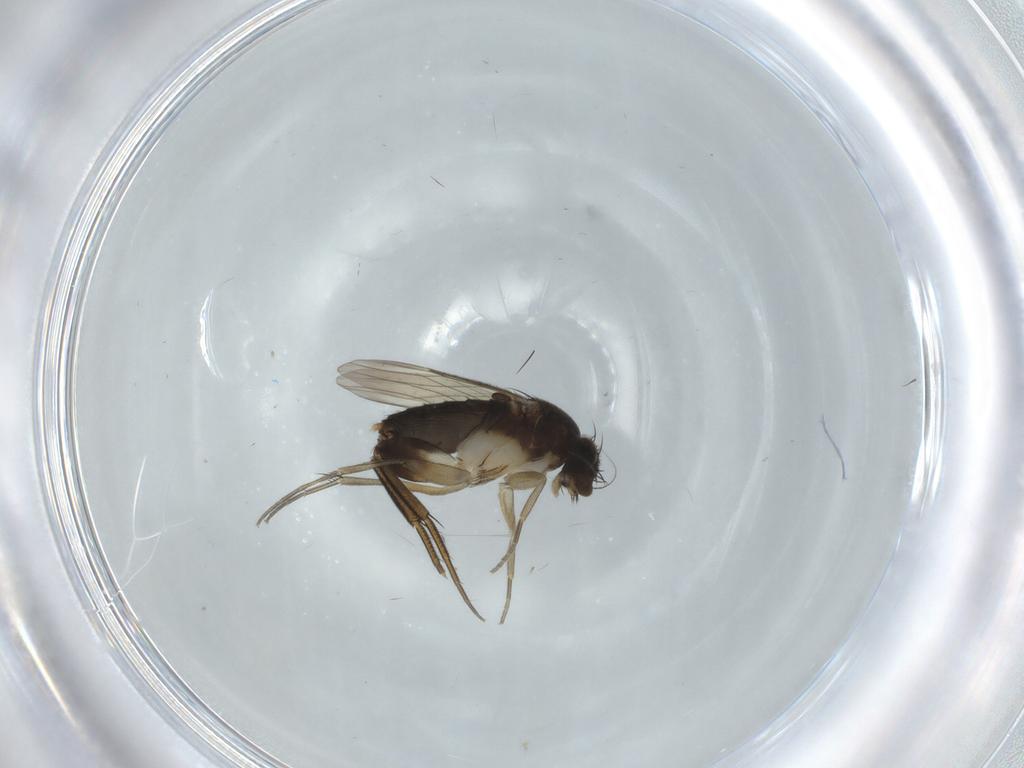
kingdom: Animalia
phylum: Arthropoda
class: Insecta
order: Diptera
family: Phoridae
